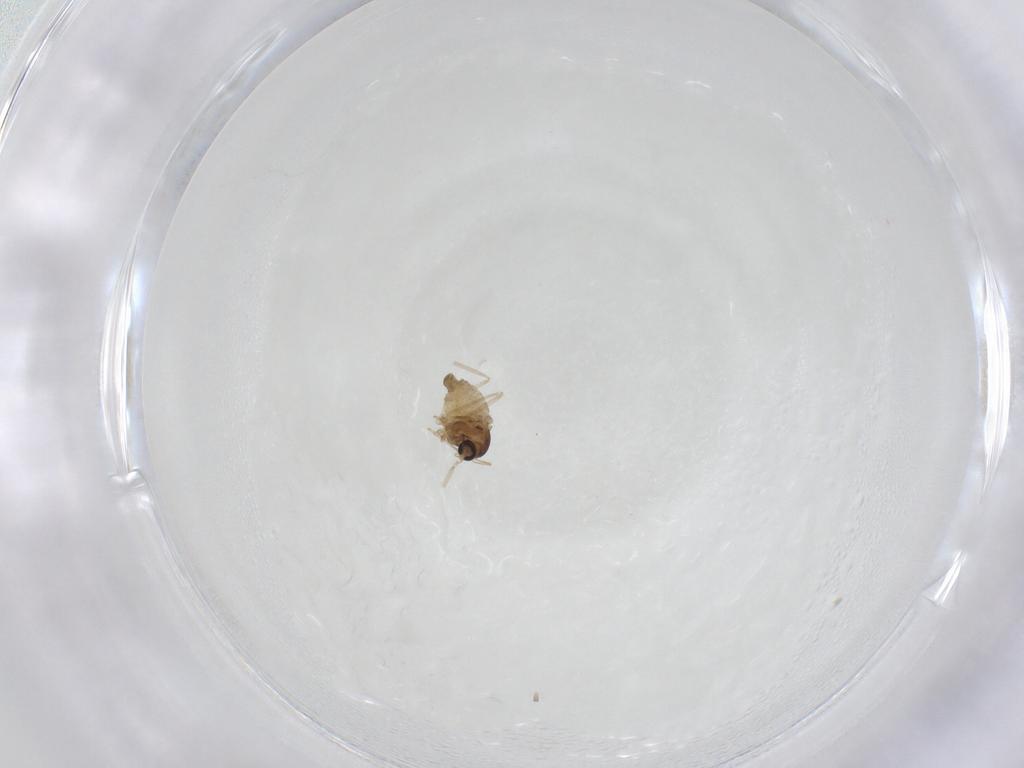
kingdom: Animalia
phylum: Arthropoda
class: Insecta
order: Diptera
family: Cecidomyiidae
